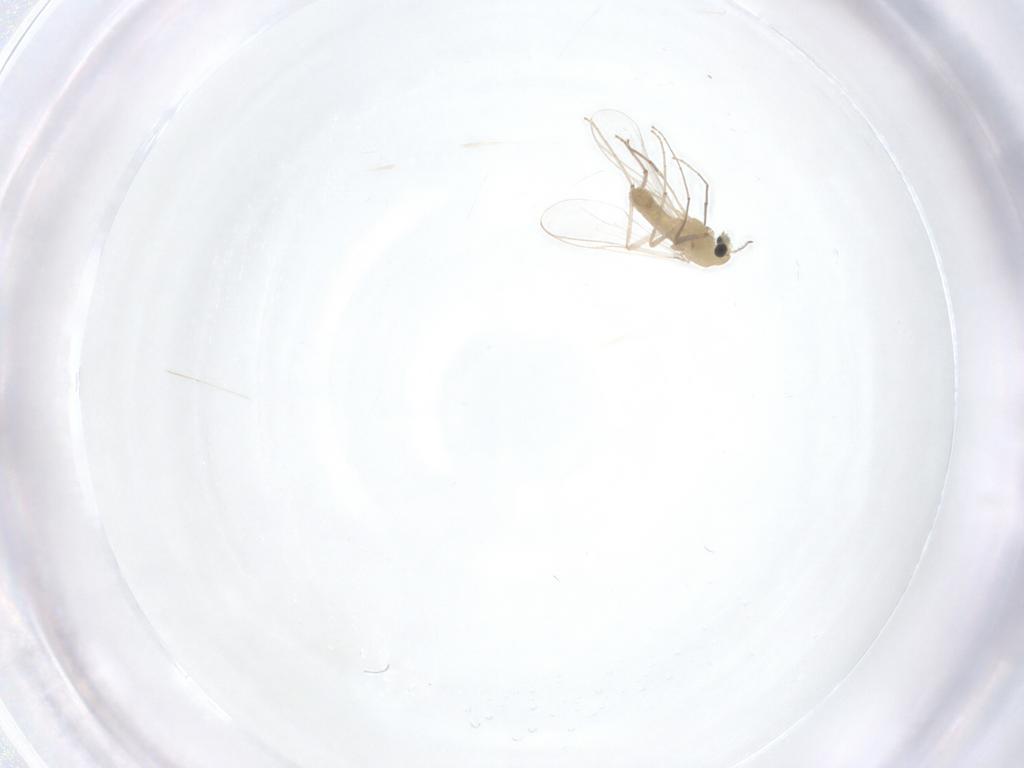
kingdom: Animalia
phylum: Arthropoda
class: Insecta
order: Diptera
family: Chironomidae
